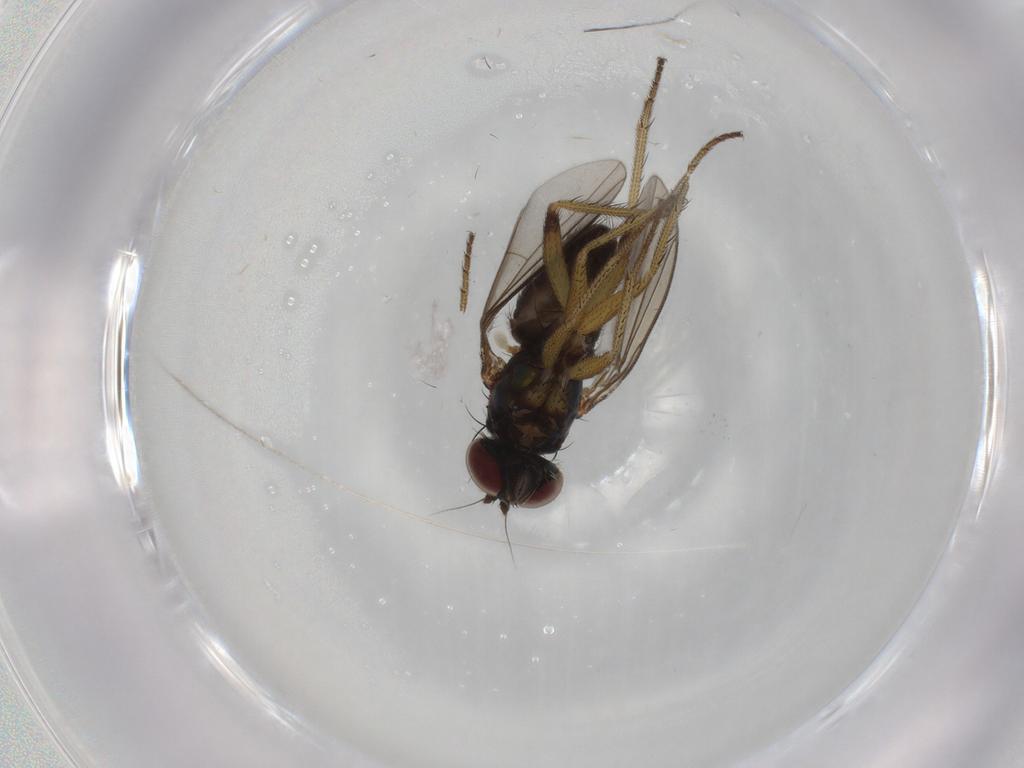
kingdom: Animalia
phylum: Arthropoda
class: Insecta
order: Diptera
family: Dolichopodidae
